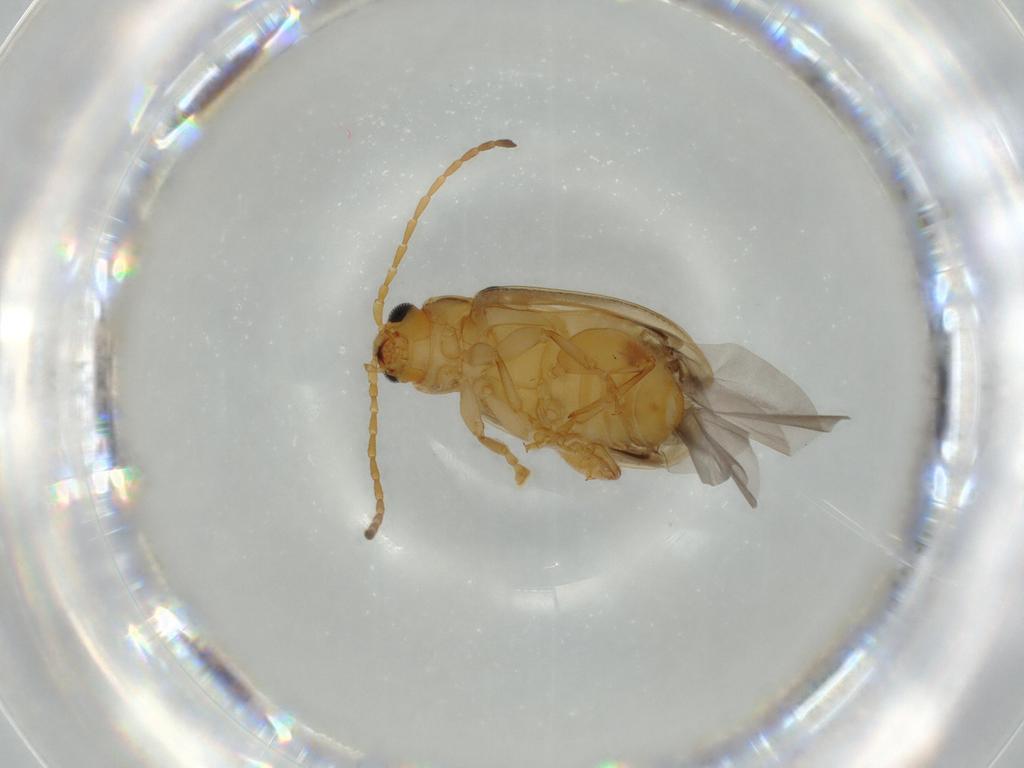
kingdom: Animalia
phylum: Arthropoda
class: Insecta
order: Coleoptera
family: Chrysomelidae
